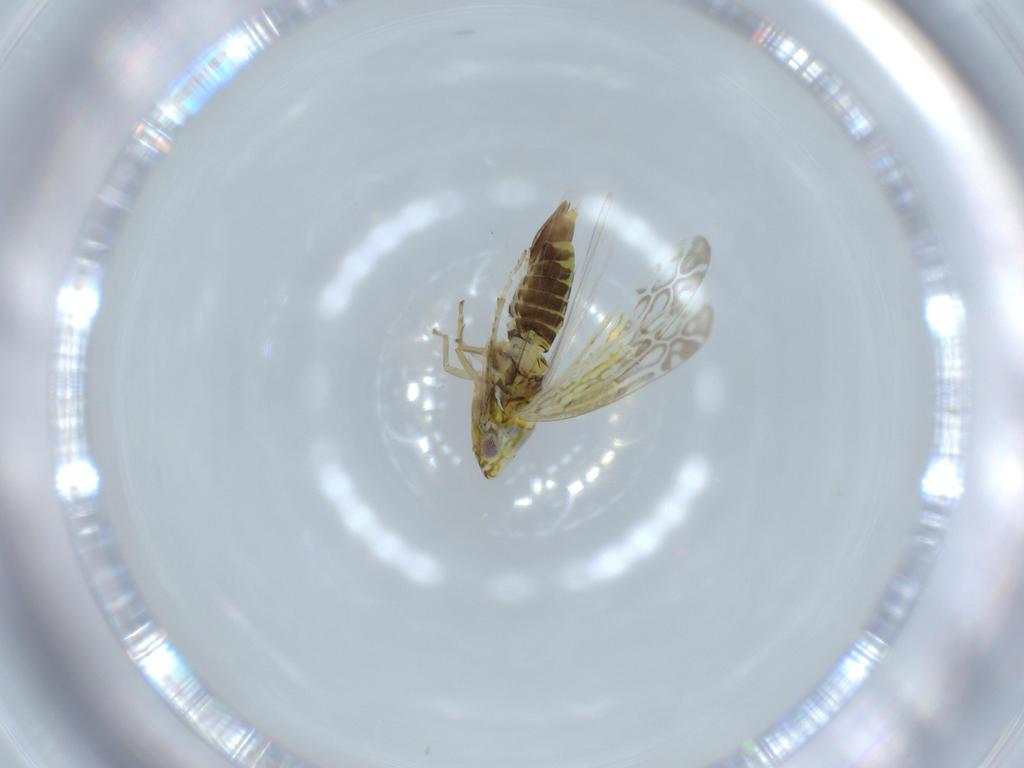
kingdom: Animalia
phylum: Arthropoda
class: Insecta
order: Hemiptera
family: Cicadellidae
